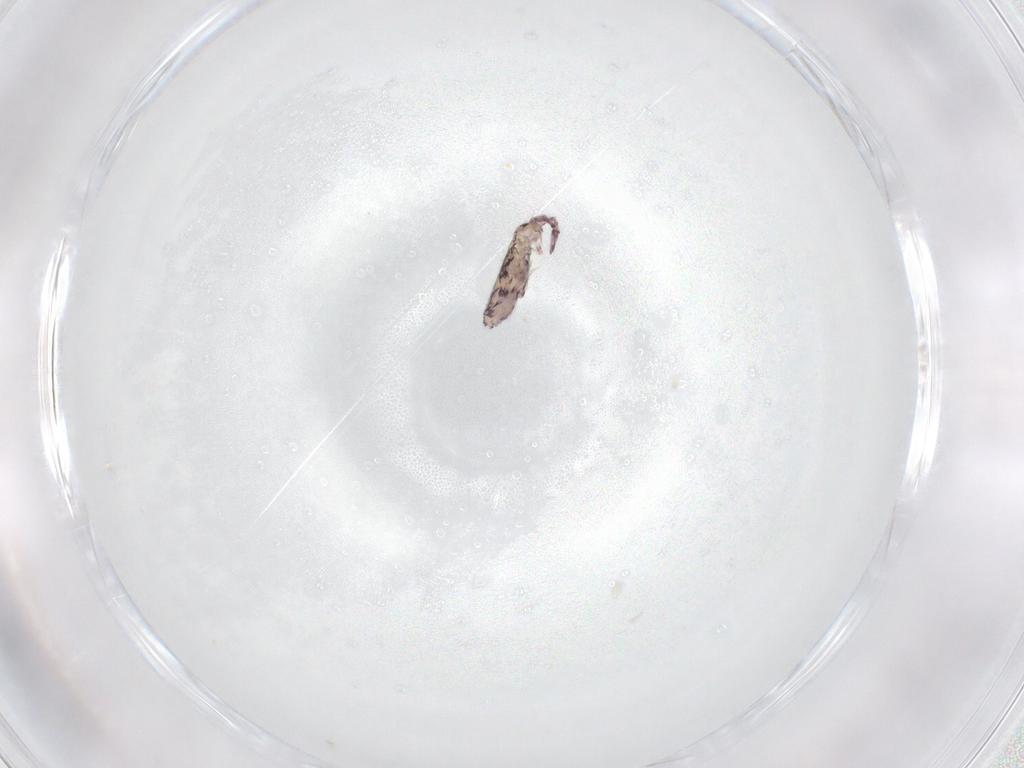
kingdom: Animalia
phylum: Arthropoda
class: Collembola
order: Entomobryomorpha
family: Entomobryidae
